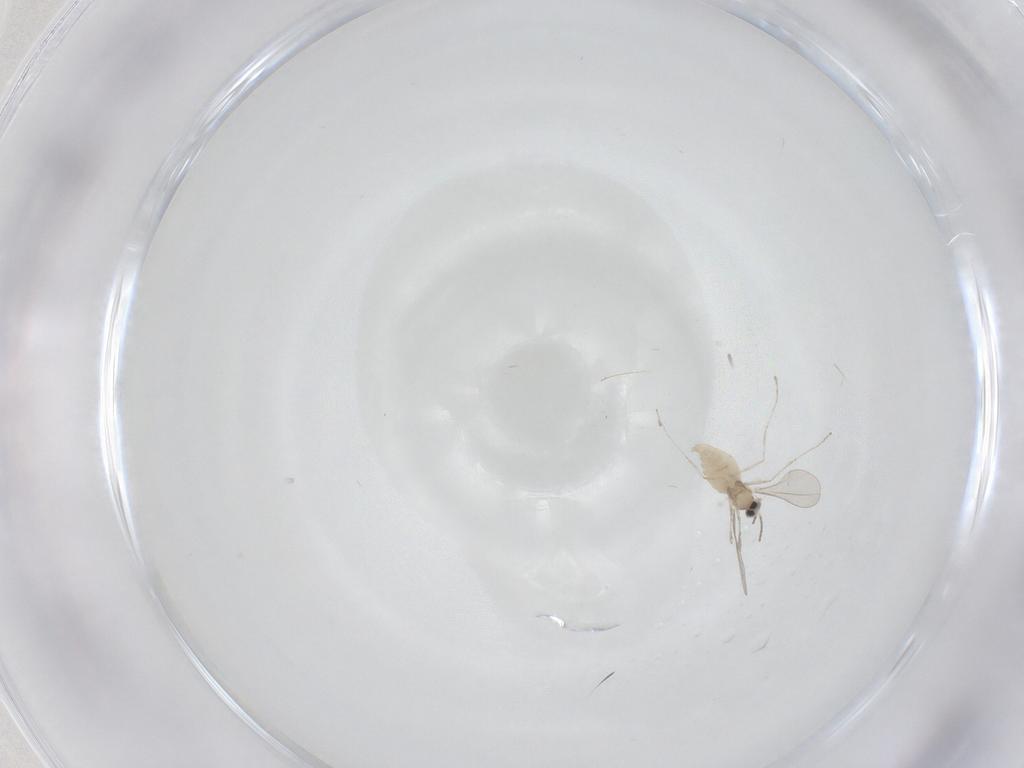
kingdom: Animalia
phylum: Arthropoda
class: Insecta
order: Diptera
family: Cecidomyiidae
